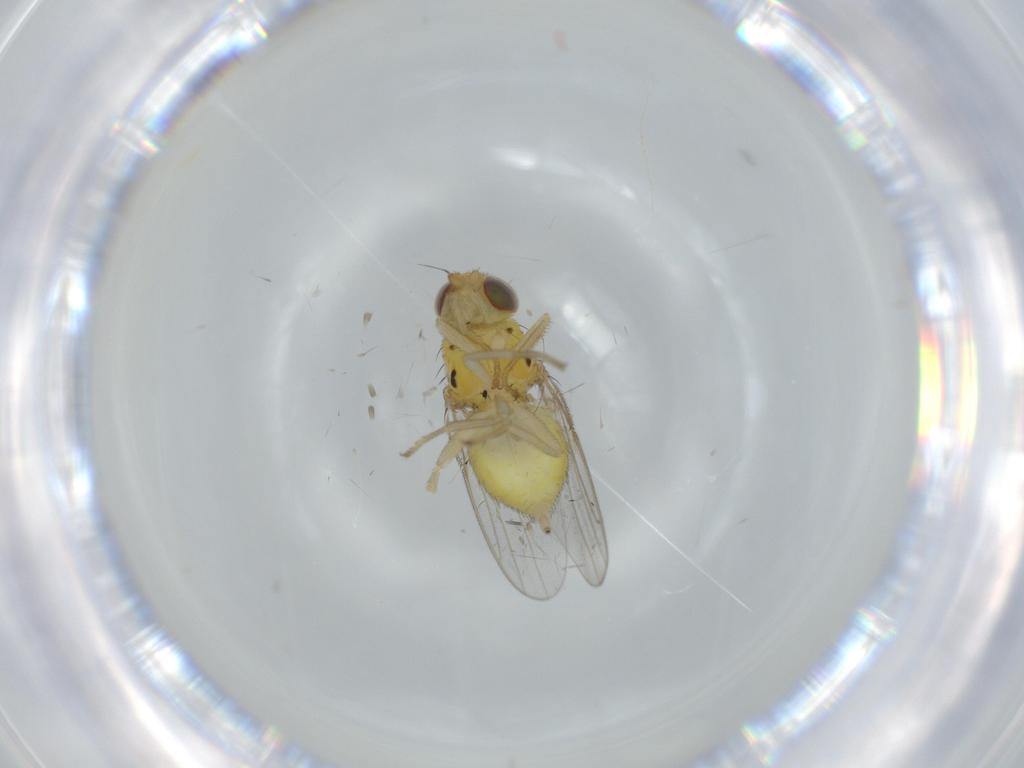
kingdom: Animalia
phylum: Arthropoda
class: Insecta
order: Diptera
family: Chloropidae
